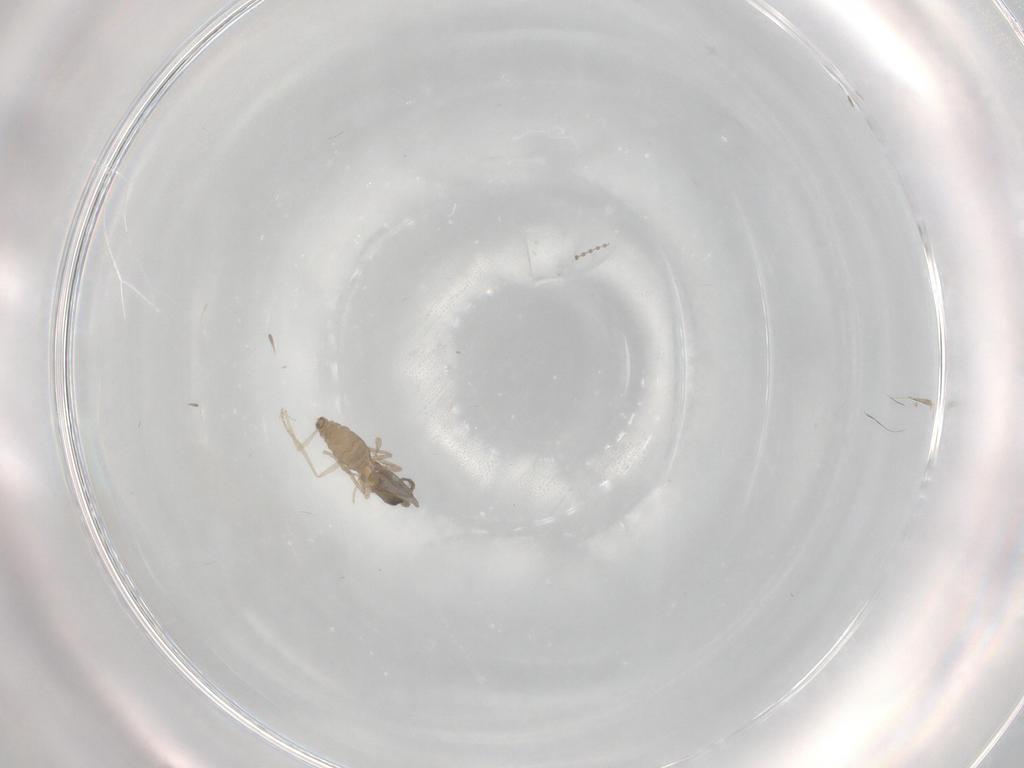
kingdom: Animalia
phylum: Arthropoda
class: Insecta
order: Diptera
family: Cecidomyiidae
